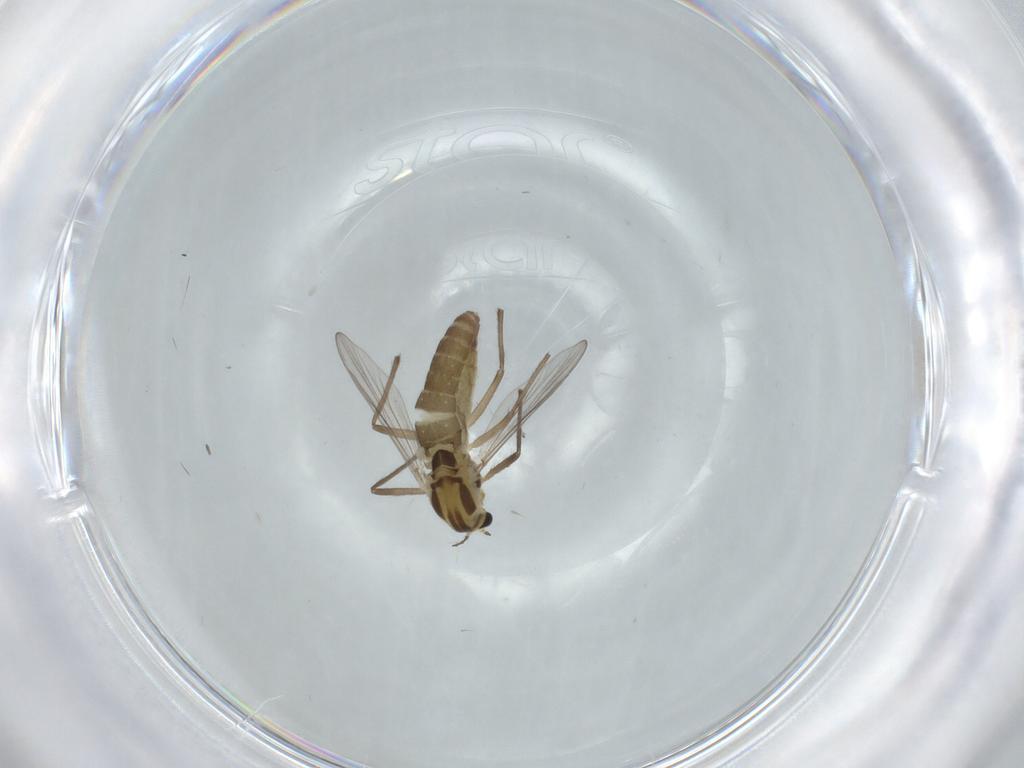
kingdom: Animalia
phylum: Arthropoda
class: Insecta
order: Diptera
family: Chironomidae
